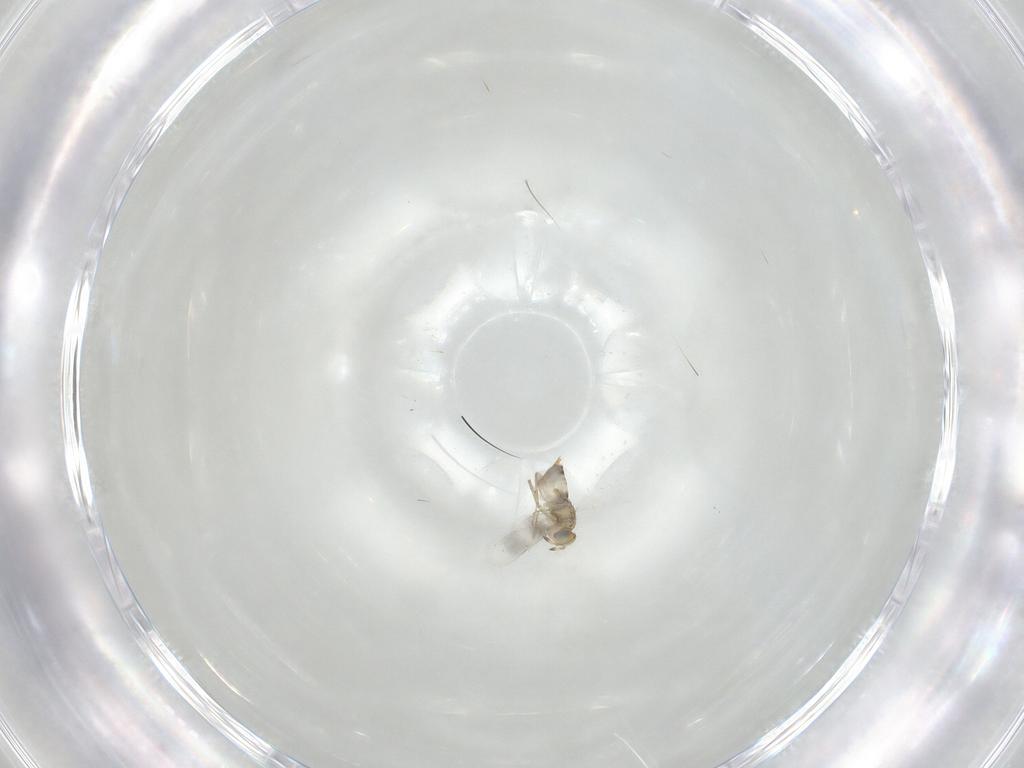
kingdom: Animalia
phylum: Arthropoda
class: Insecta
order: Hymenoptera
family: Aphelinidae
